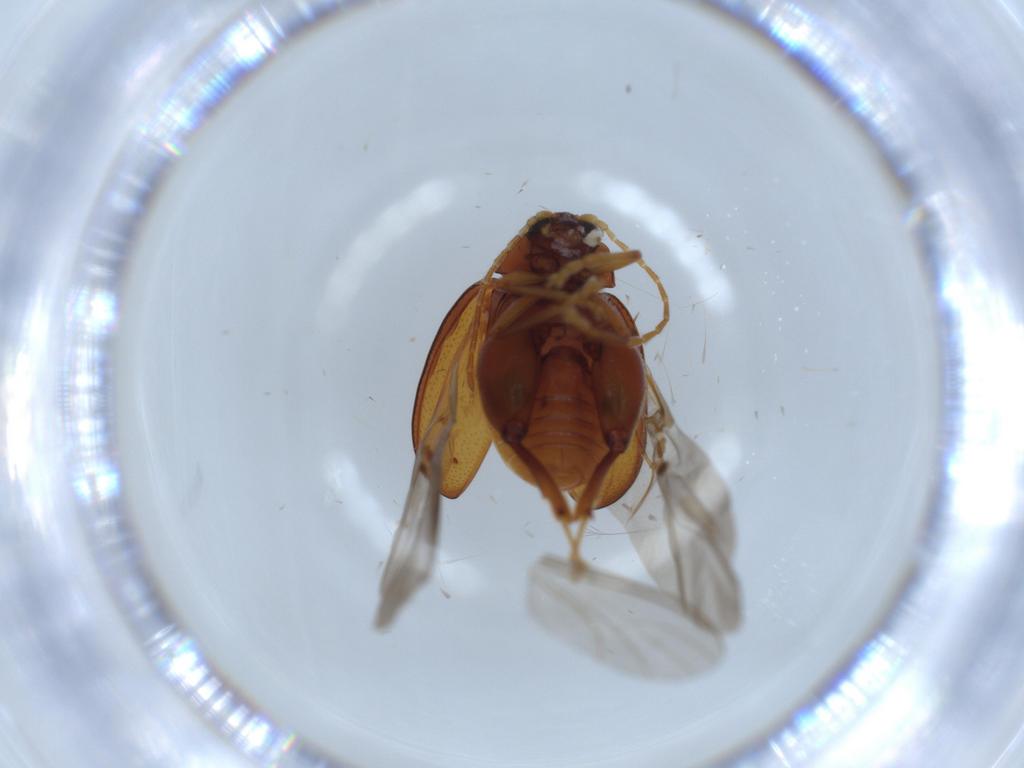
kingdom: Animalia
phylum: Arthropoda
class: Insecta
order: Coleoptera
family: Chrysomelidae
